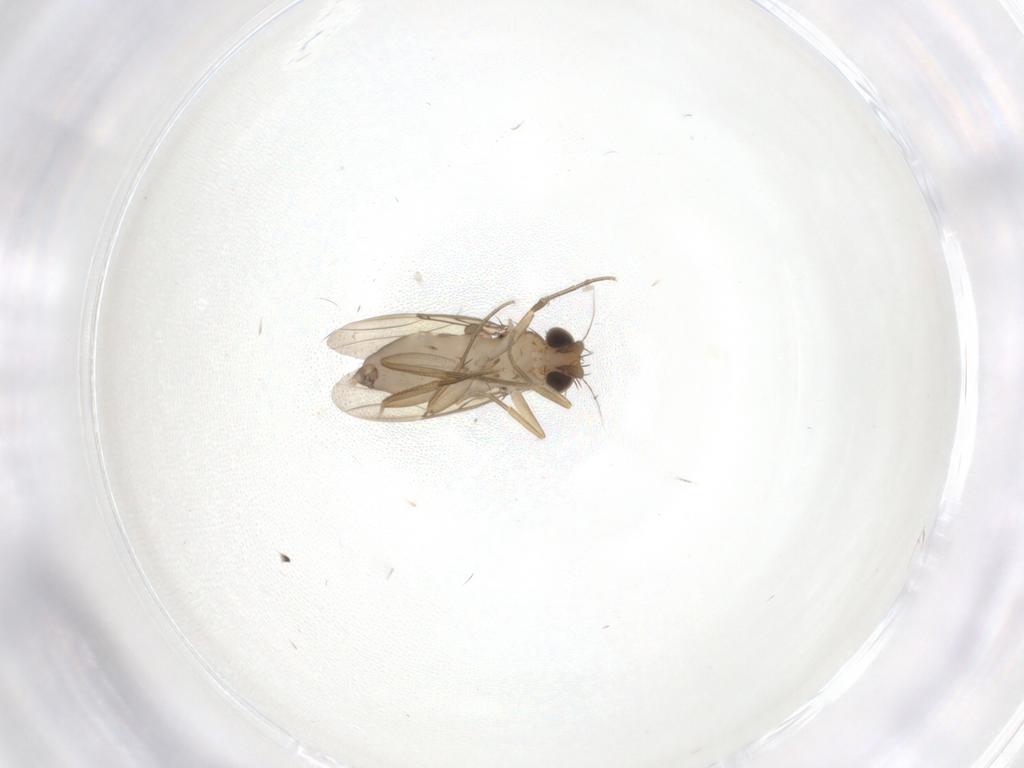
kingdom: Animalia
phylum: Arthropoda
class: Insecta
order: Diptera
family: Phoridae
